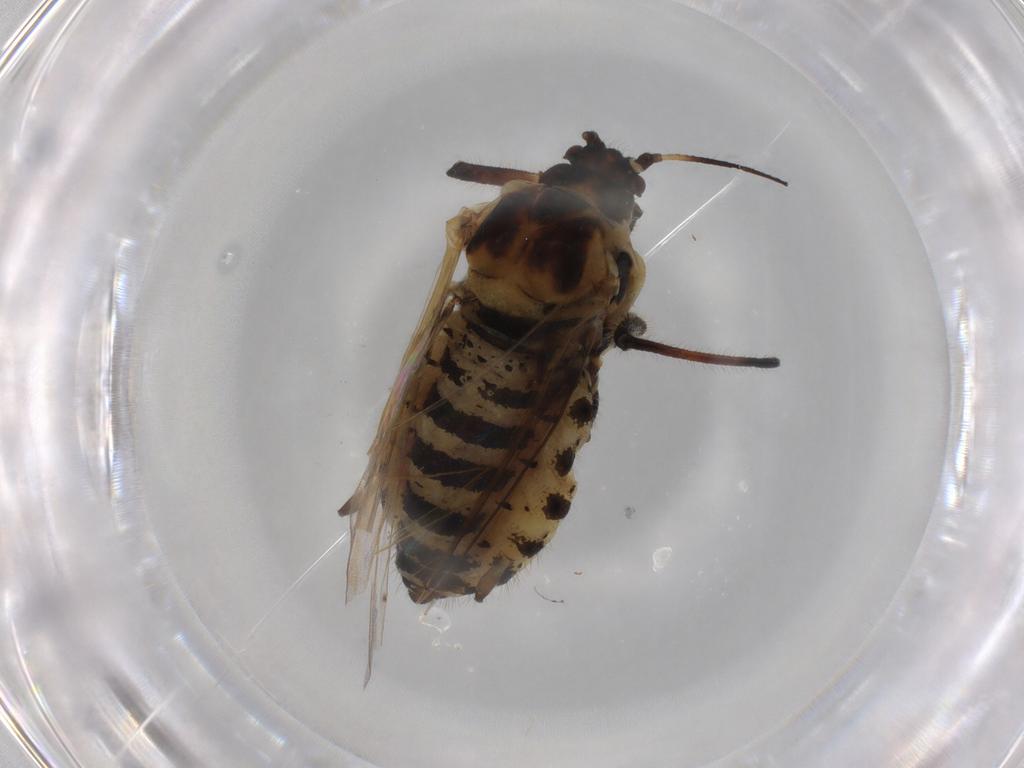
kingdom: Animalia
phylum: Arthropoda
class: Insecta
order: Hemiptera
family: Aphididae
